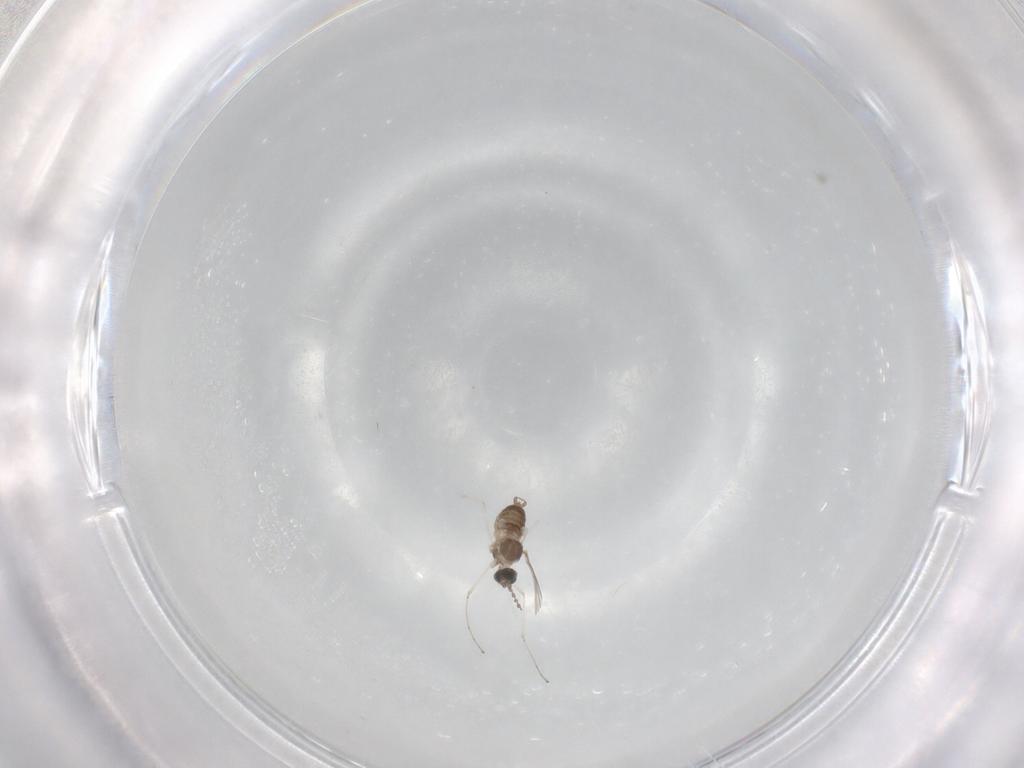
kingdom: Animalia
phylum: Arthropoda
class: Insecta
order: Diptera
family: Cecidomyiidae
